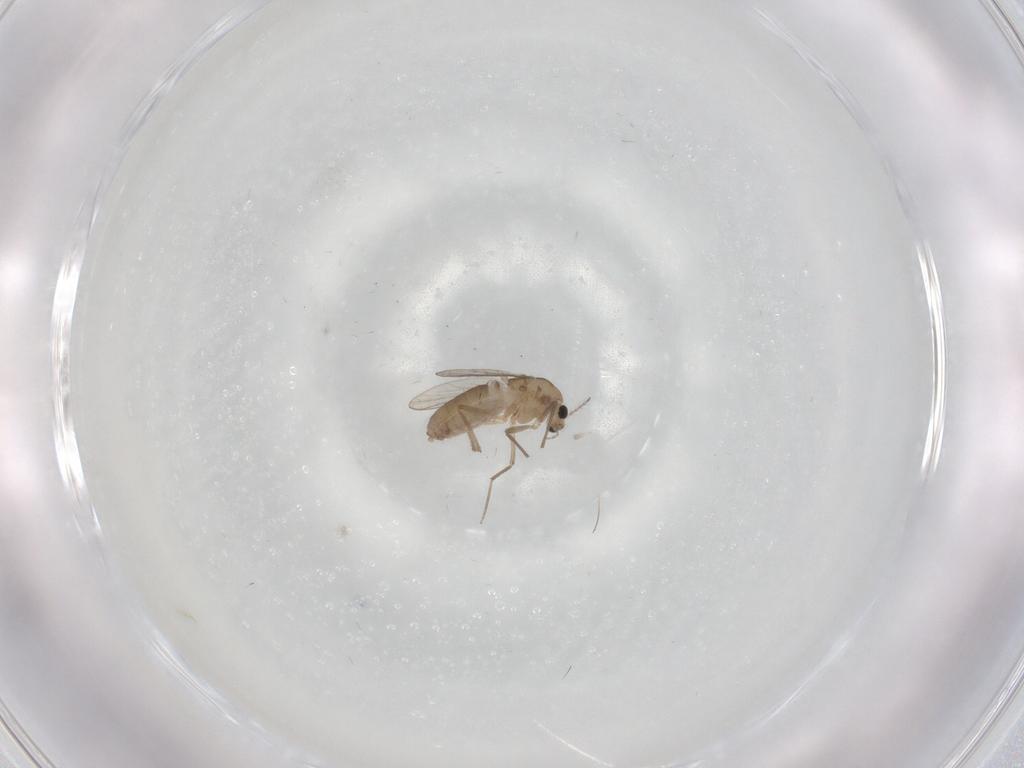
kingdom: Animalia
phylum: Arthropoda
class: Insecta
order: Diptera
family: Chironomidae
